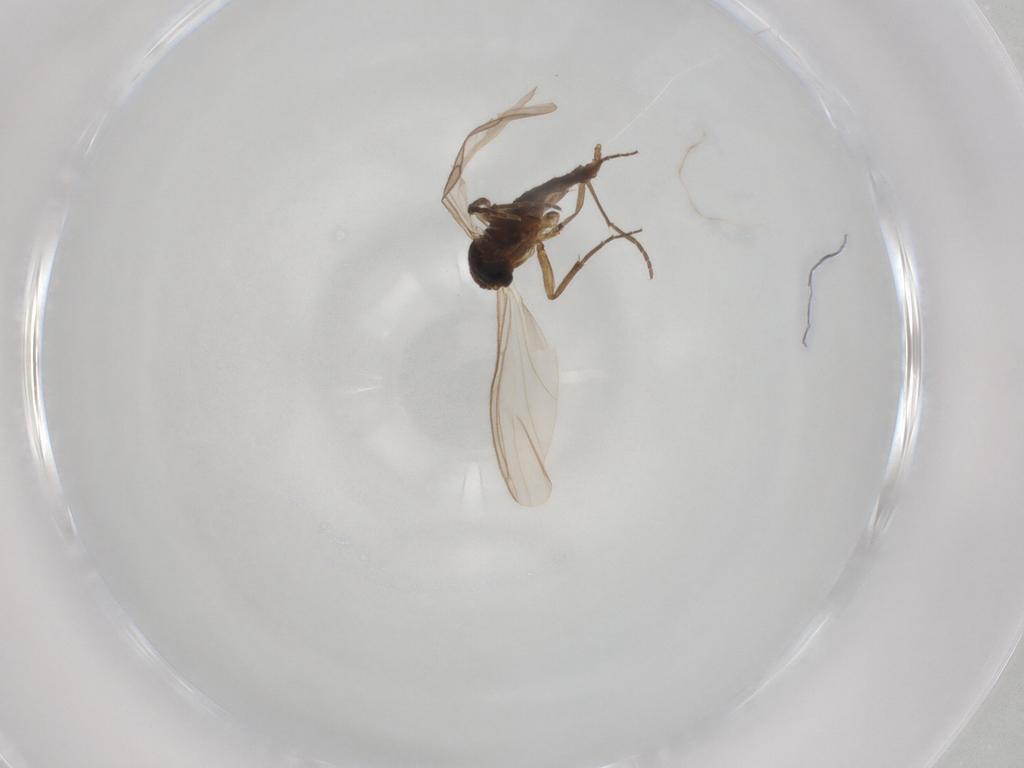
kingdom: Animalia
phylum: Arthropoda
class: Insecta
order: Diptera
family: Sciaridae
